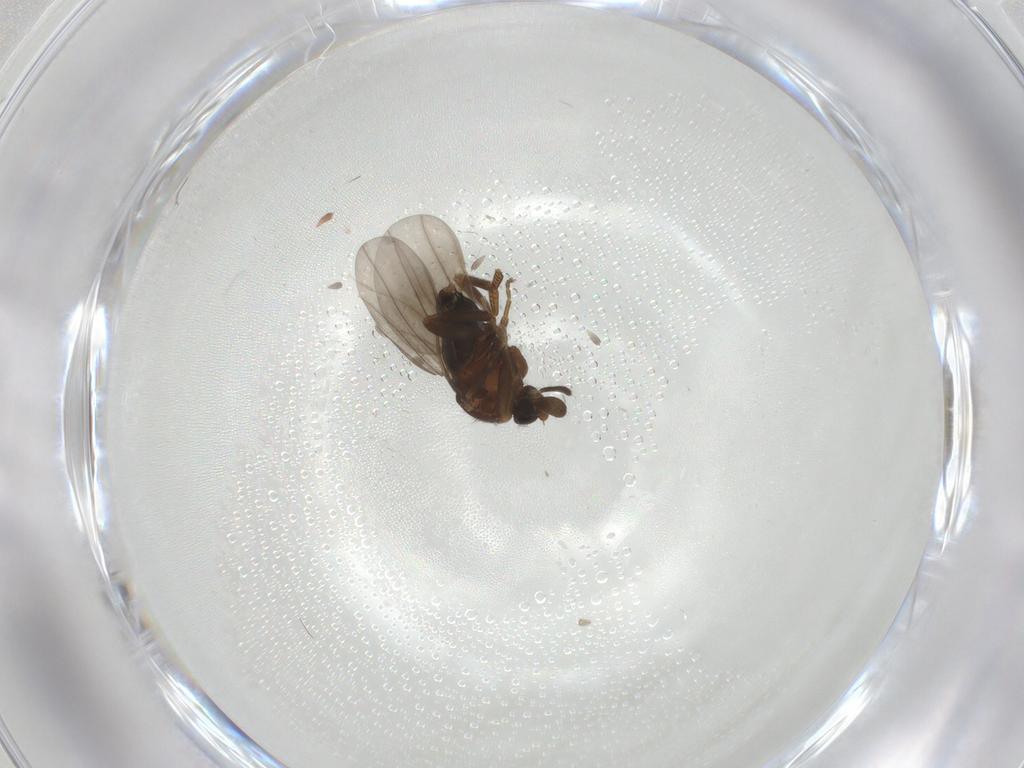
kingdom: Animalia
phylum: Arthropoda
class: Insecta
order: Diptera
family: Phoridae
